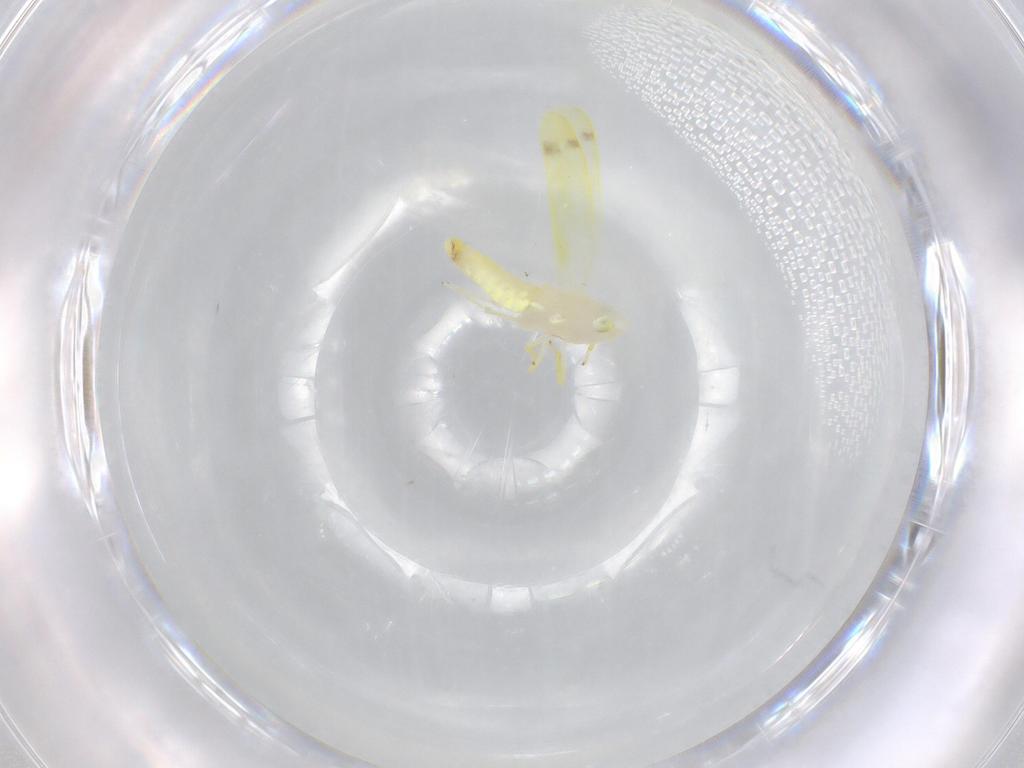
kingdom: Animalia
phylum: Arthropoda
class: Insecta
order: Hemiptera
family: Cicadellidae
